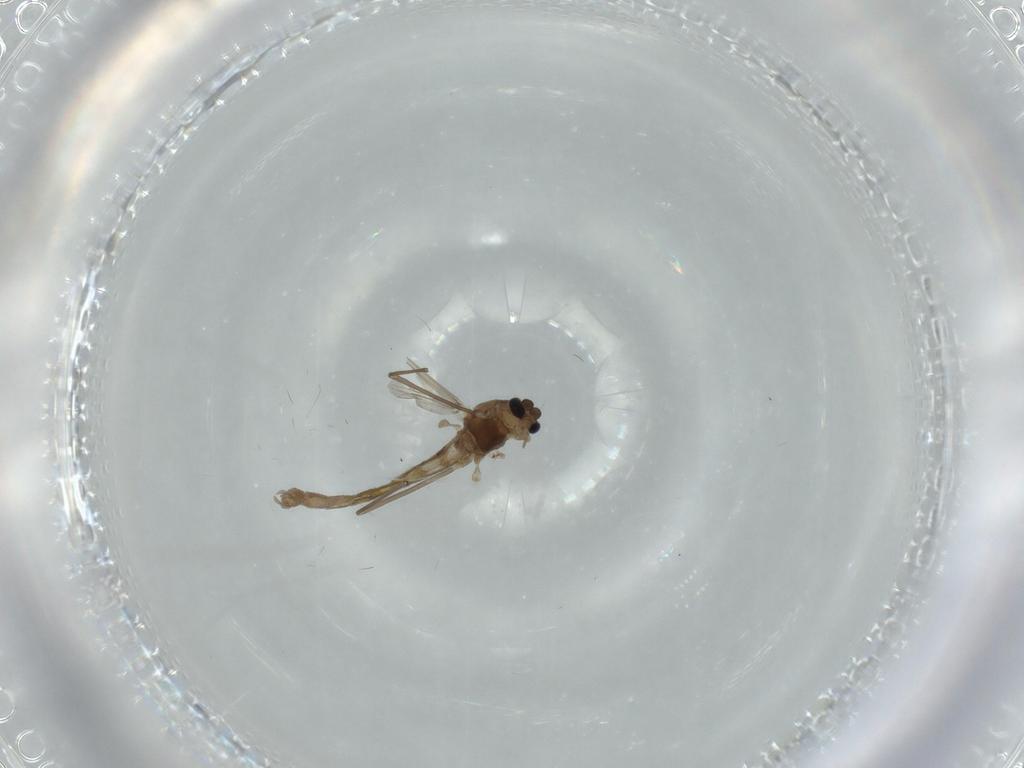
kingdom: Animalia
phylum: Arthropoda
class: Insecta
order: Diptera
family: Chironomidae
